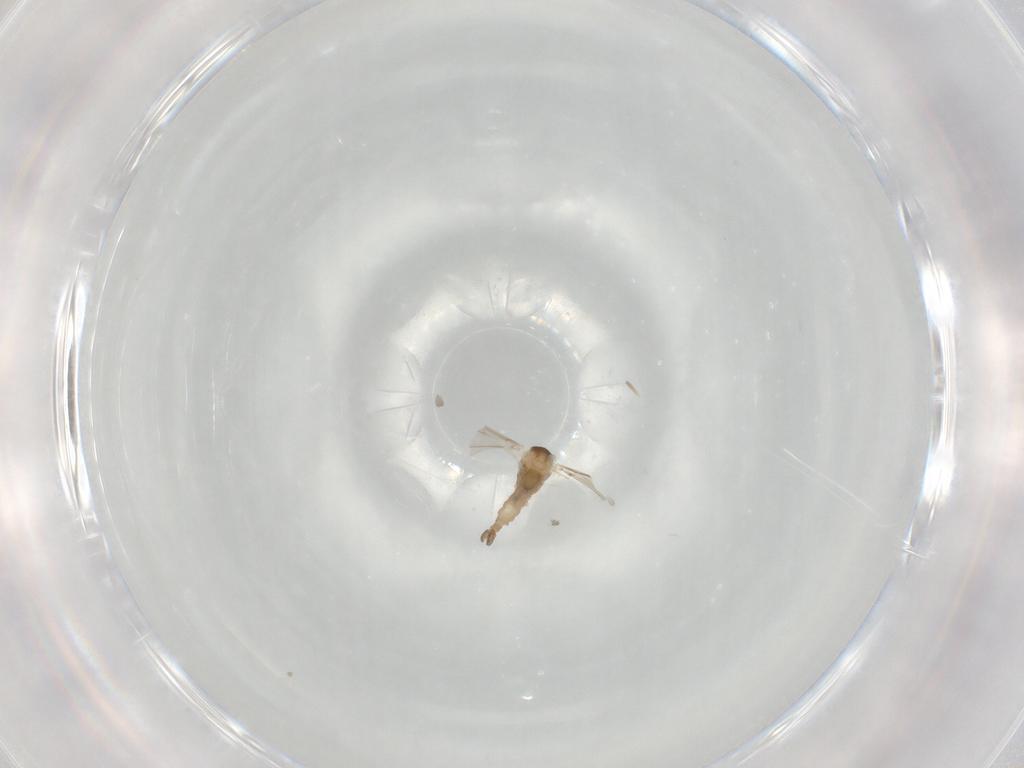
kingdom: Animalia
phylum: Arthropoda
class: Insecta
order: Diptera
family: Cecidomyiidae
